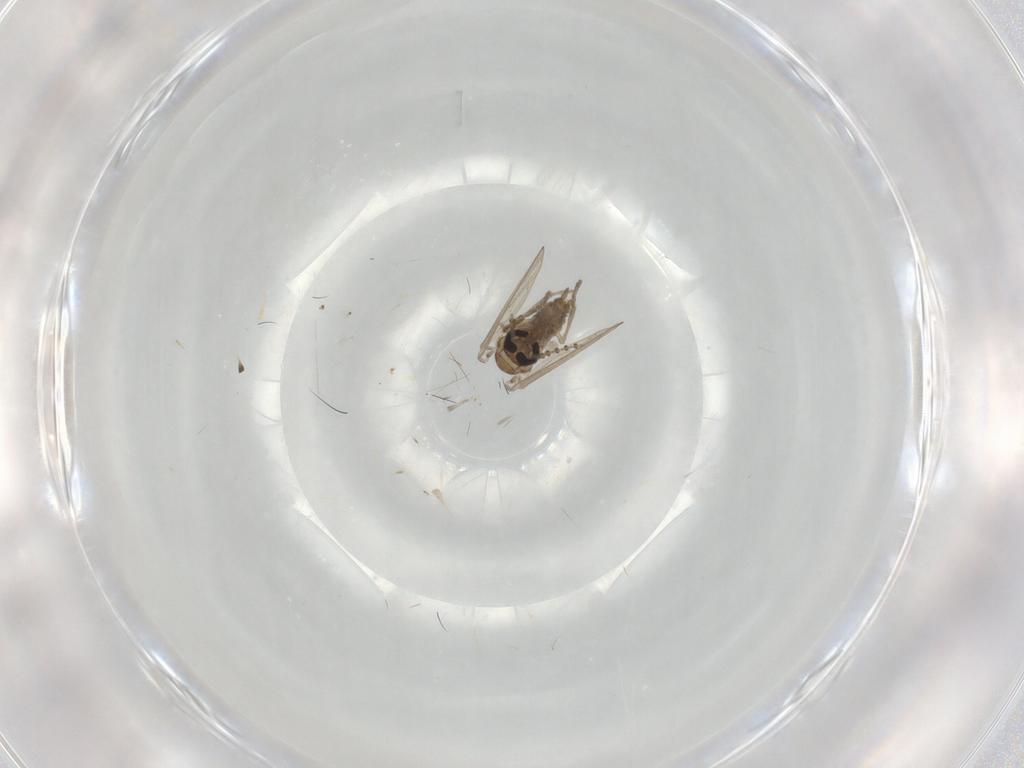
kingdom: Animalia
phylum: Arthropoda
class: Insecta
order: Diptera
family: Psychodidae
